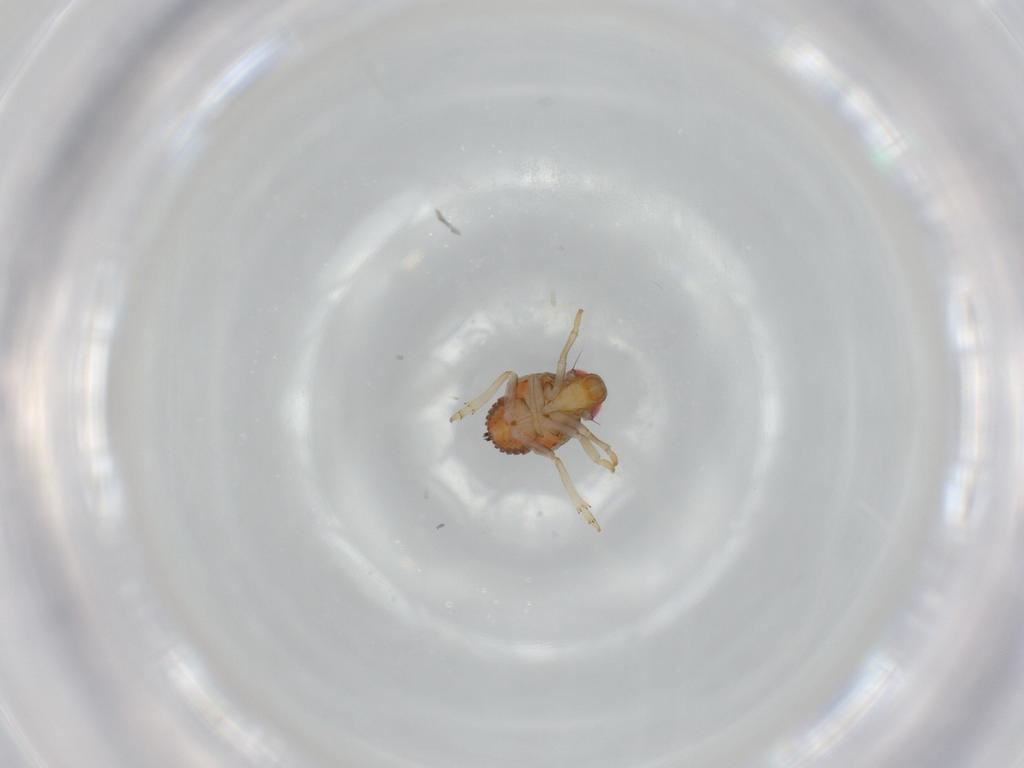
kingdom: Animalia
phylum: Arthropoda
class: Insecta
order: Hemiptera
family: Issidae
